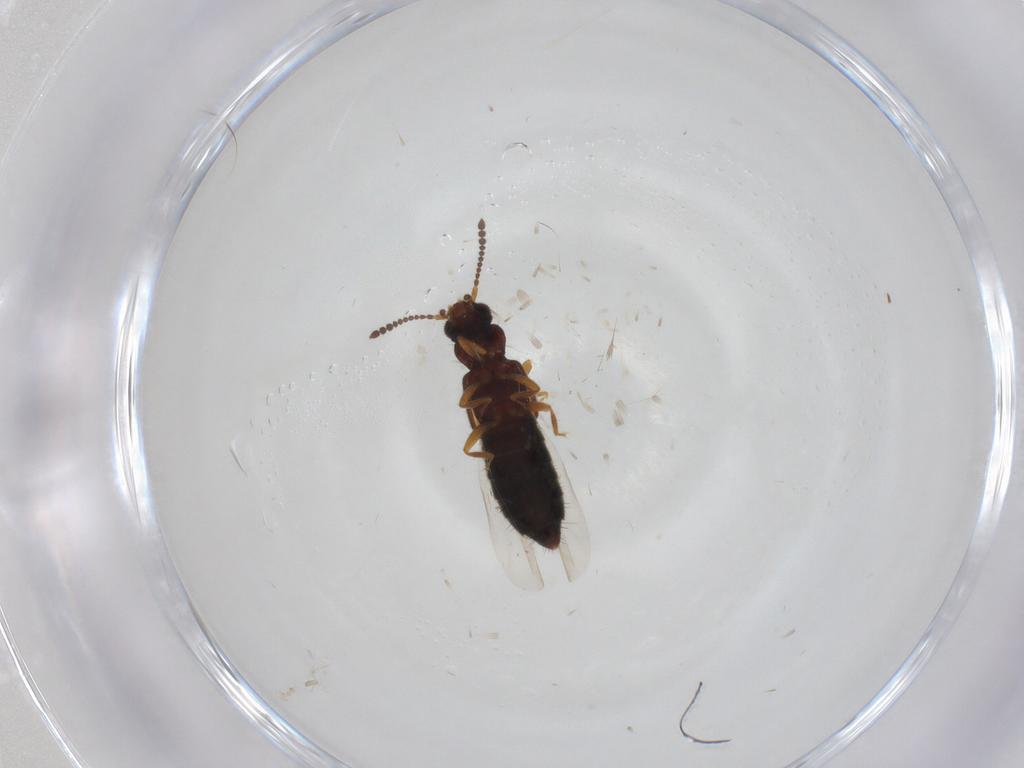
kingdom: Animalia
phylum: Arthropoda
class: Insecta
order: Coleoptera
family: Staphylinidae
